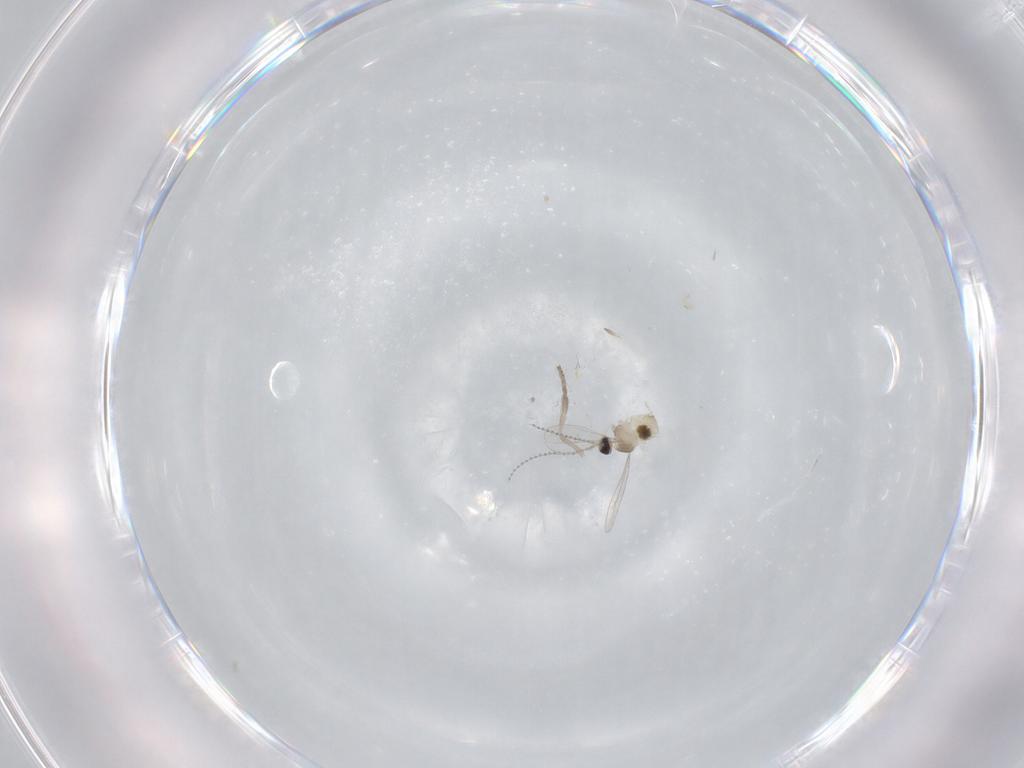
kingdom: Animalia
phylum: Arthropoda
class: Insecta
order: Diptera
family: Cecidomyiidae
